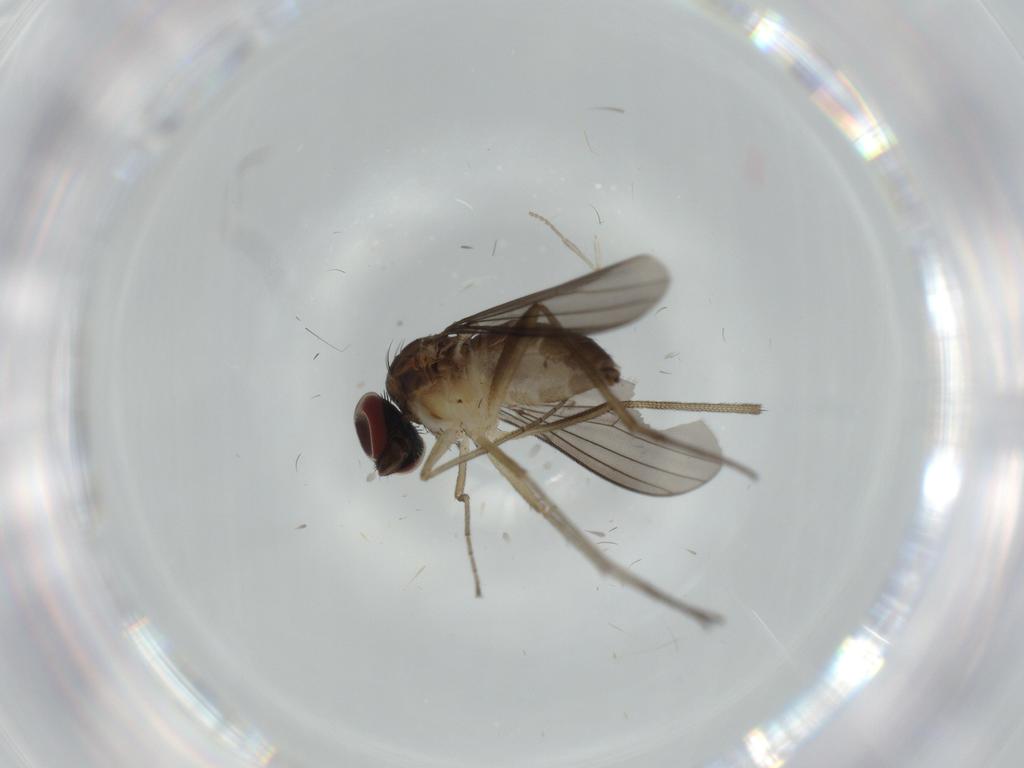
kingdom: Animalia
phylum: Arthropoda
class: Insecta
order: Diptera
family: Dolichopodidae
